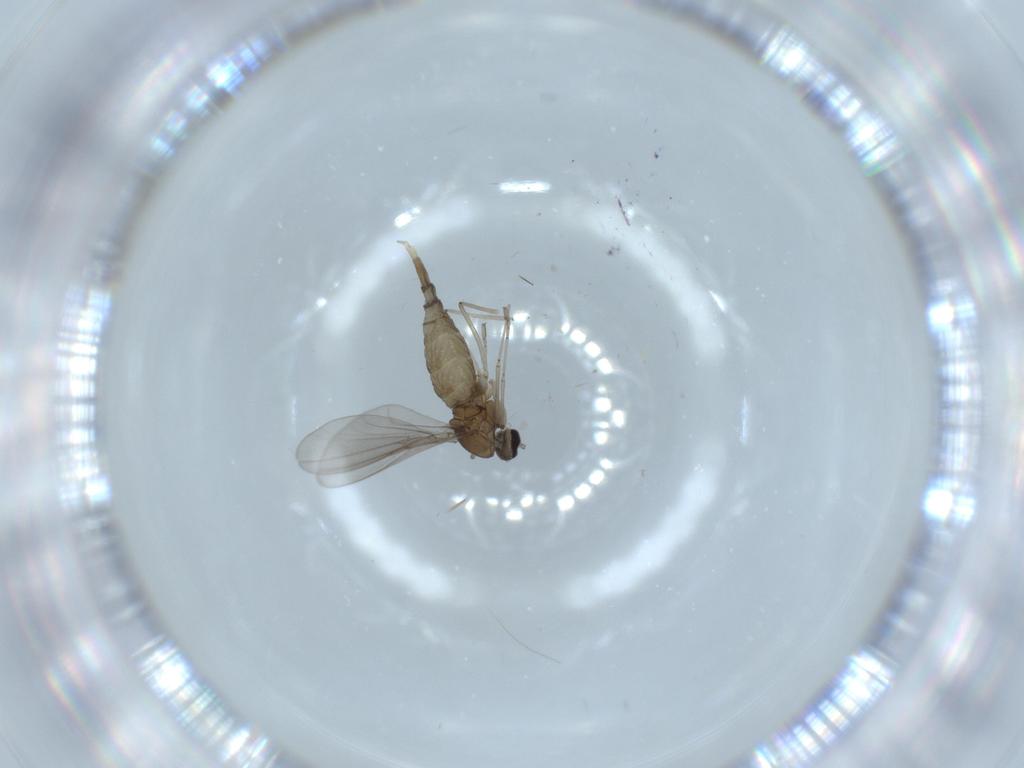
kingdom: Animalia
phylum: Arthropoda
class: Insecta
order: Diptera
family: Cecidomyiidae
